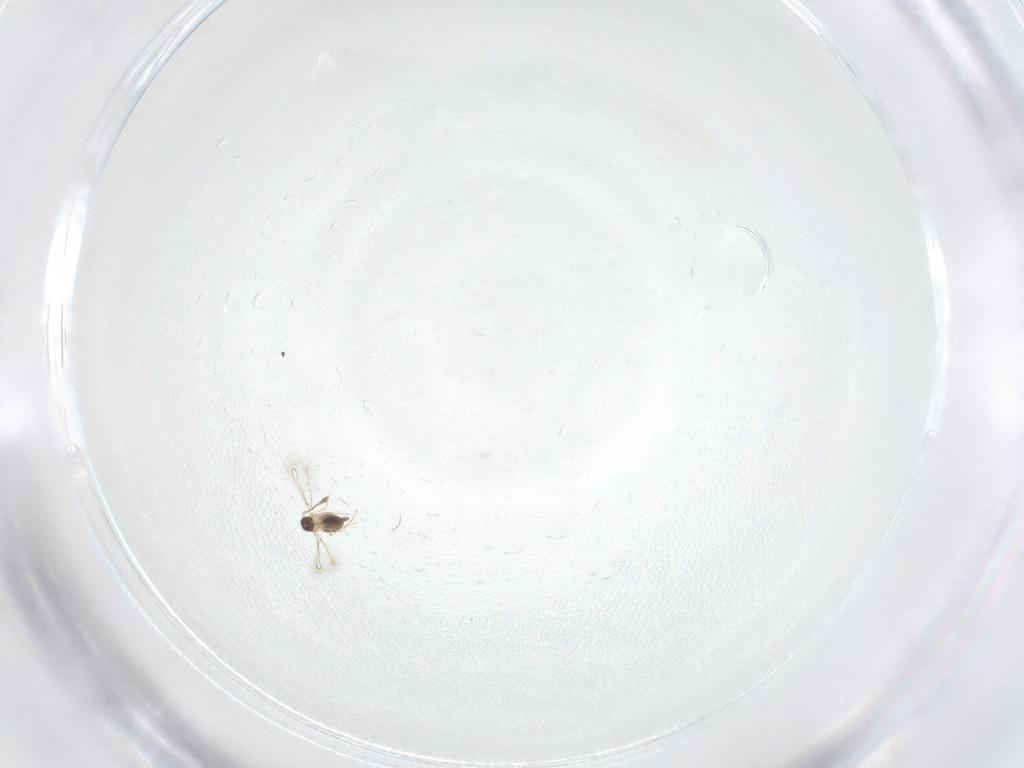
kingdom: Animalia
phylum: Arthropoda
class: Insecta
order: Hymenoptera
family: Mymaridae
